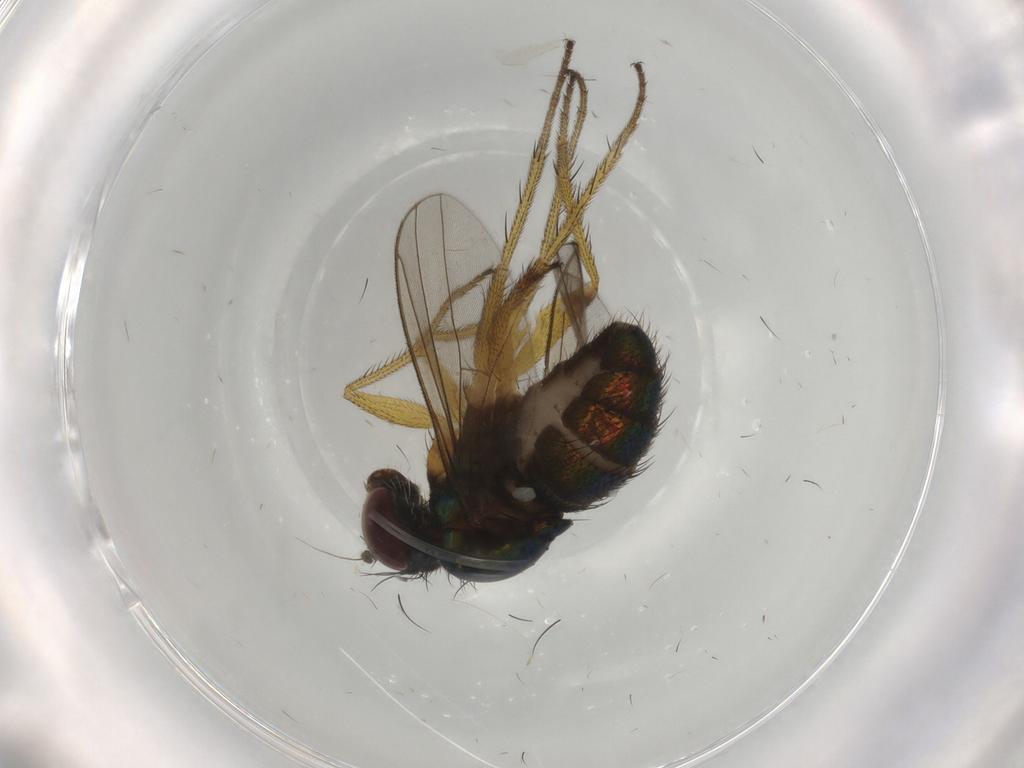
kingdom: Animalia
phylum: Arthropoda
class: Insecta
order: Diptera
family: Dolichopodidae
